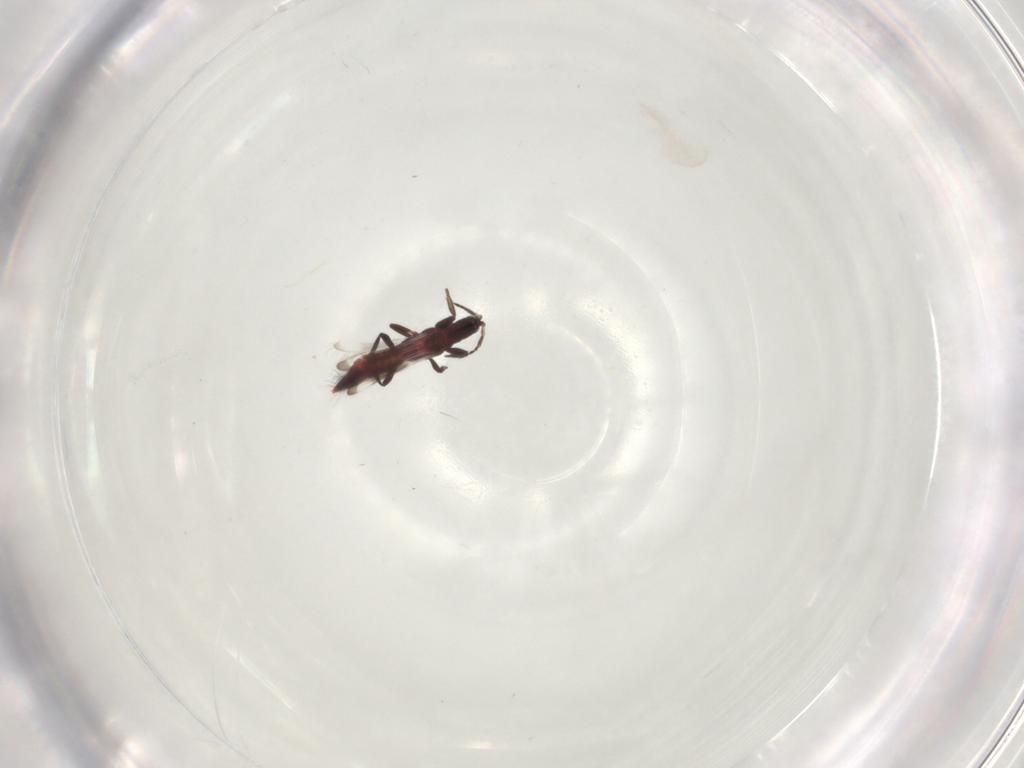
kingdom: Animalia
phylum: Arthropoda
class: Insecta
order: Thysanoptera
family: Aeolothripidae
